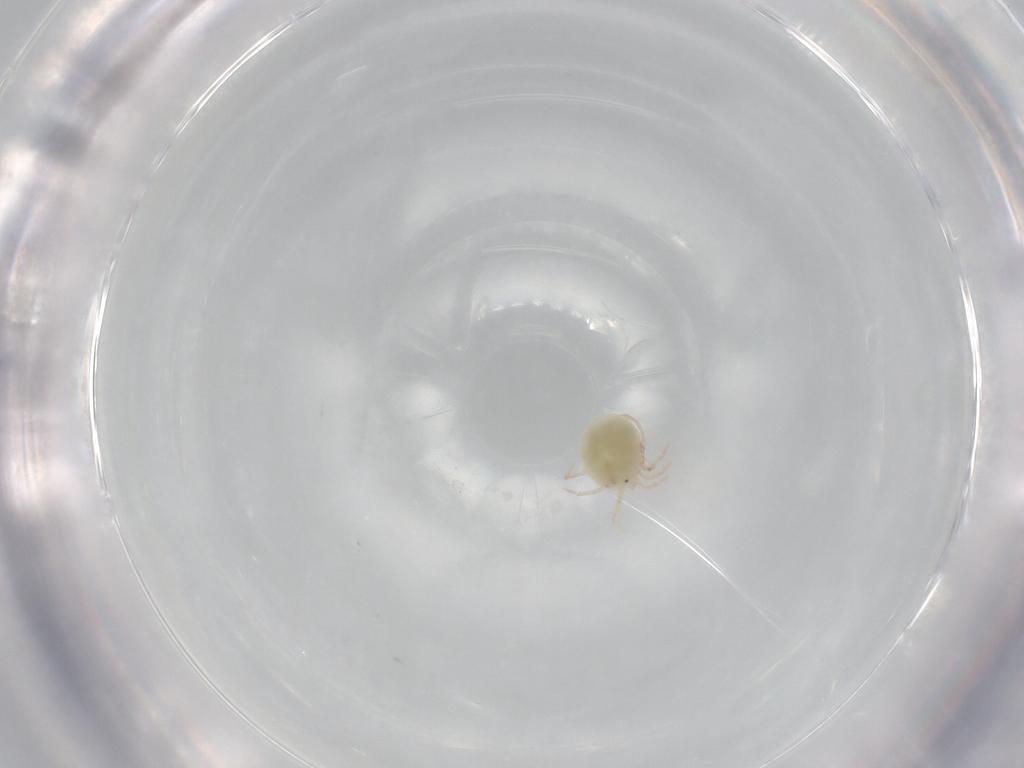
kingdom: Animalia
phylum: Arthropoda
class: Arachnida
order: Trombidiformes
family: Pionidae
